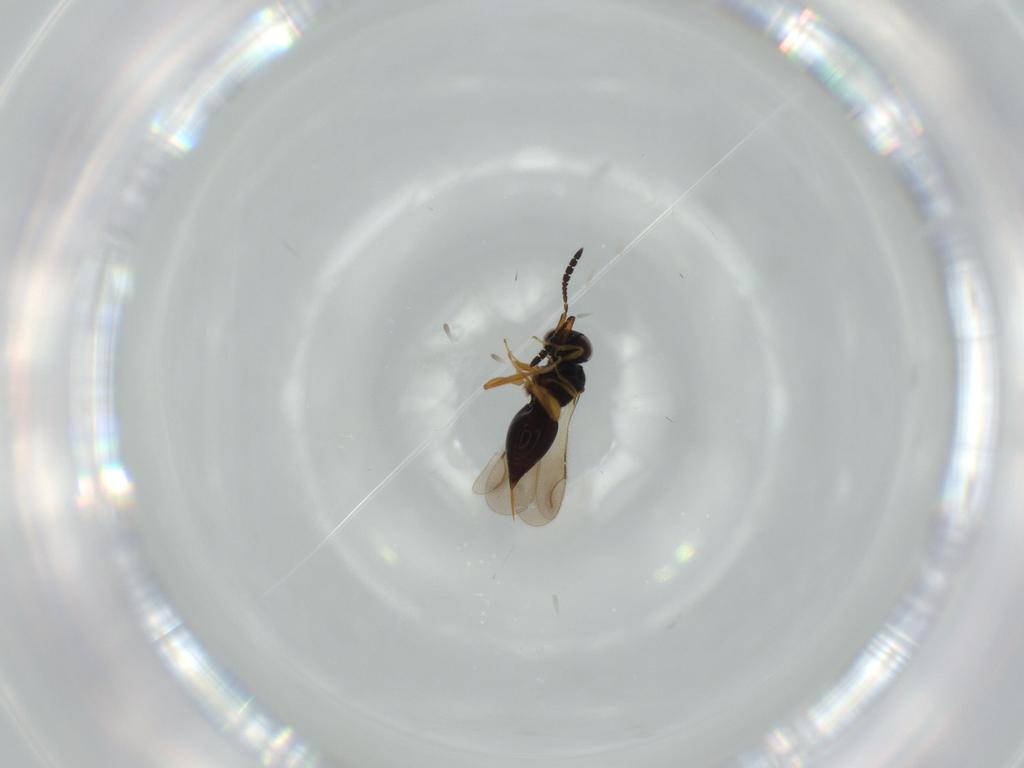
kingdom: Animalia
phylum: Arthropoda
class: Insecta
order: Hymenoptera
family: Ceraphronidae
